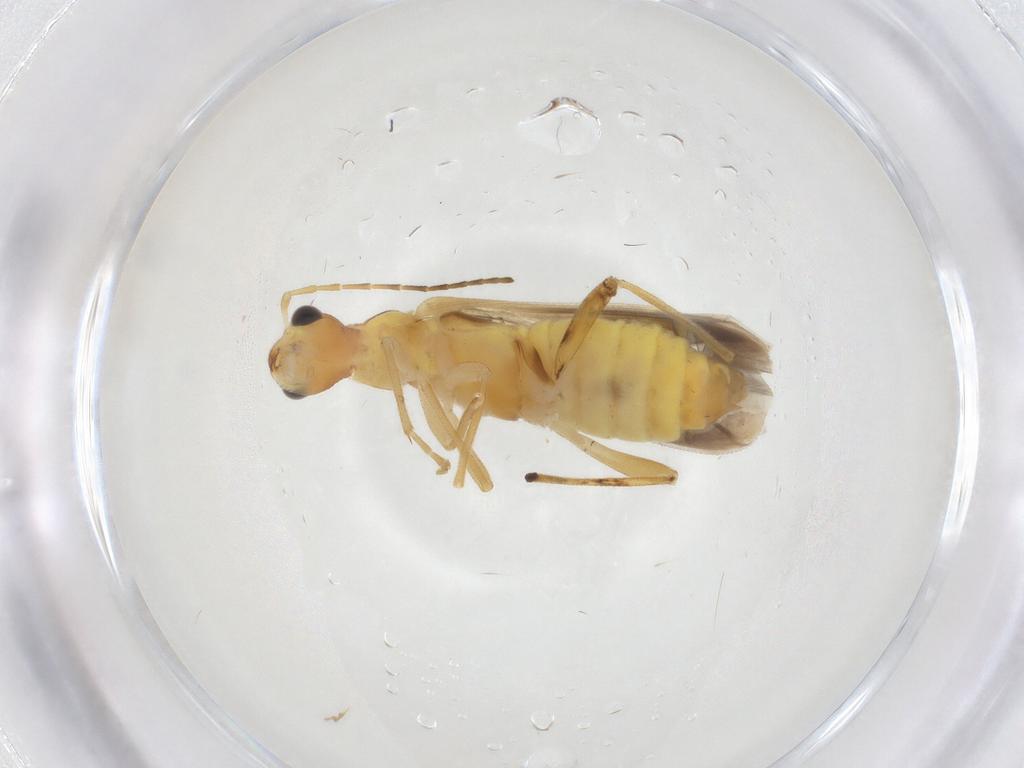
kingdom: Animalia
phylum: Arthropoda
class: Insecta
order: Coleoptera
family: Cantharidae
